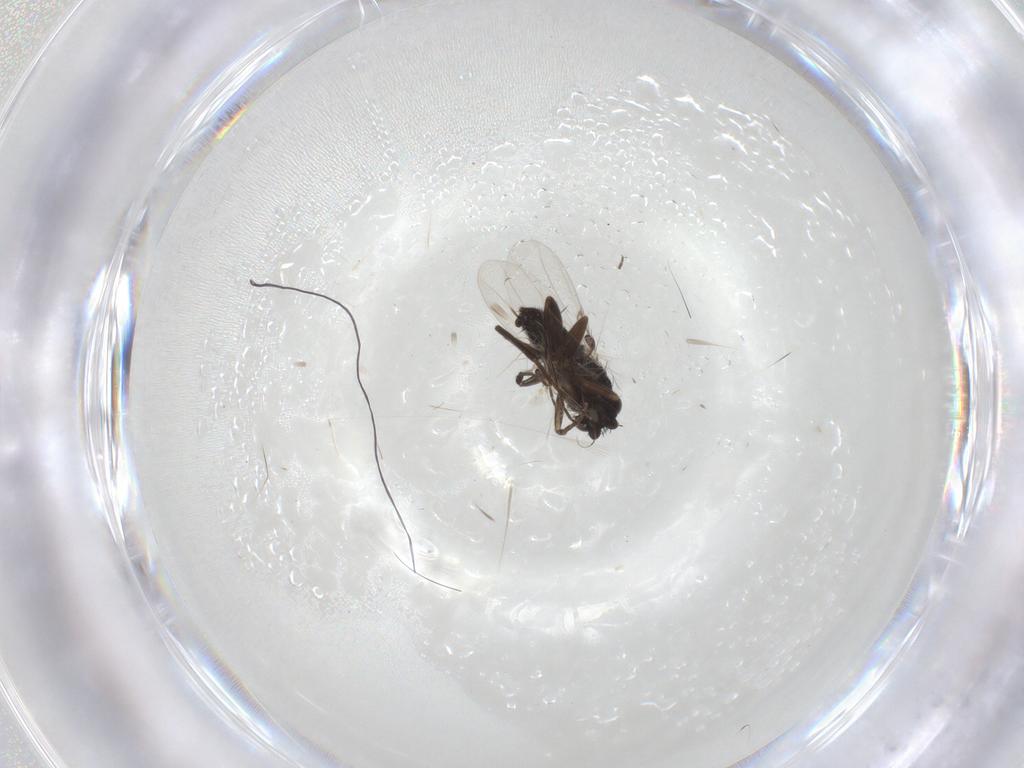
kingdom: Animalia
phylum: Arthropoda
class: Insecta
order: Diptera
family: Phoridae
